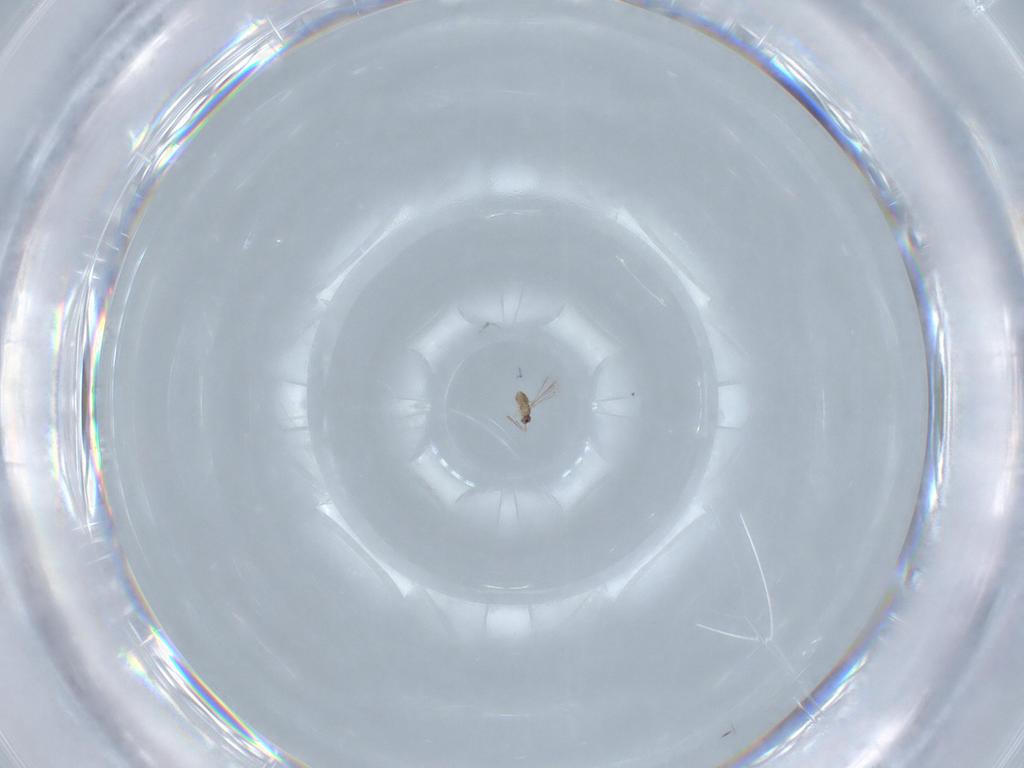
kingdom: Animalia
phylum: Arthropoda
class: Insecta
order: Hymenoptera
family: Mymaridae
